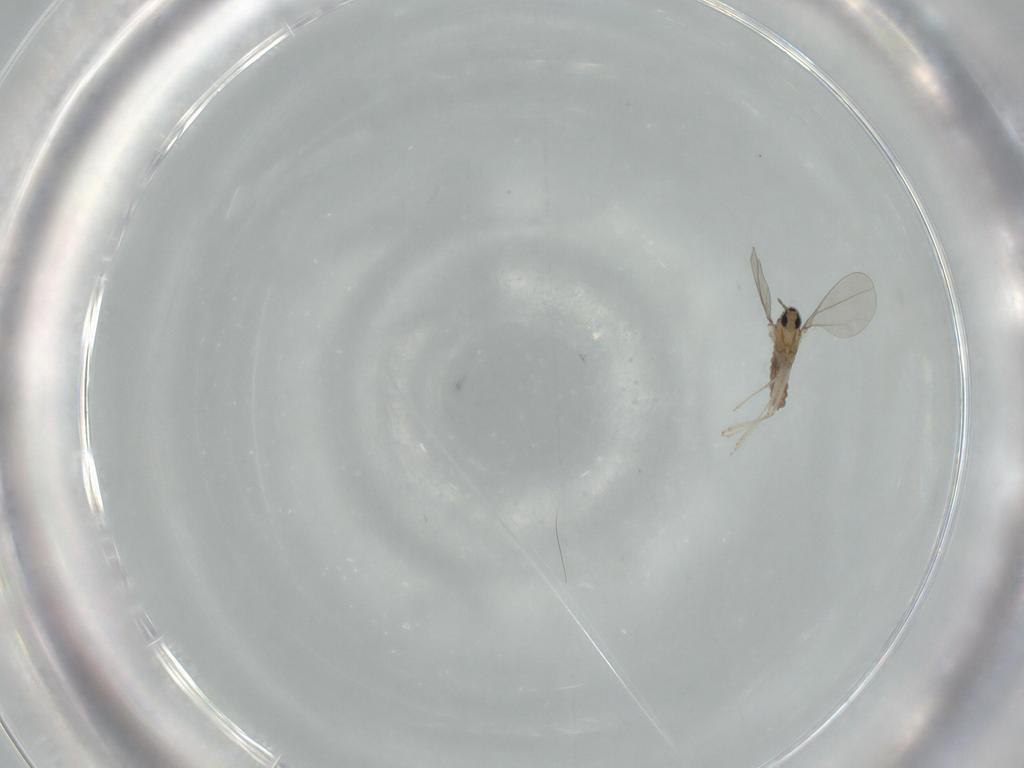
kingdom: Animalia
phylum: Arthropoda
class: Insecta
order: Diptera
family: Cecidomyiidae
